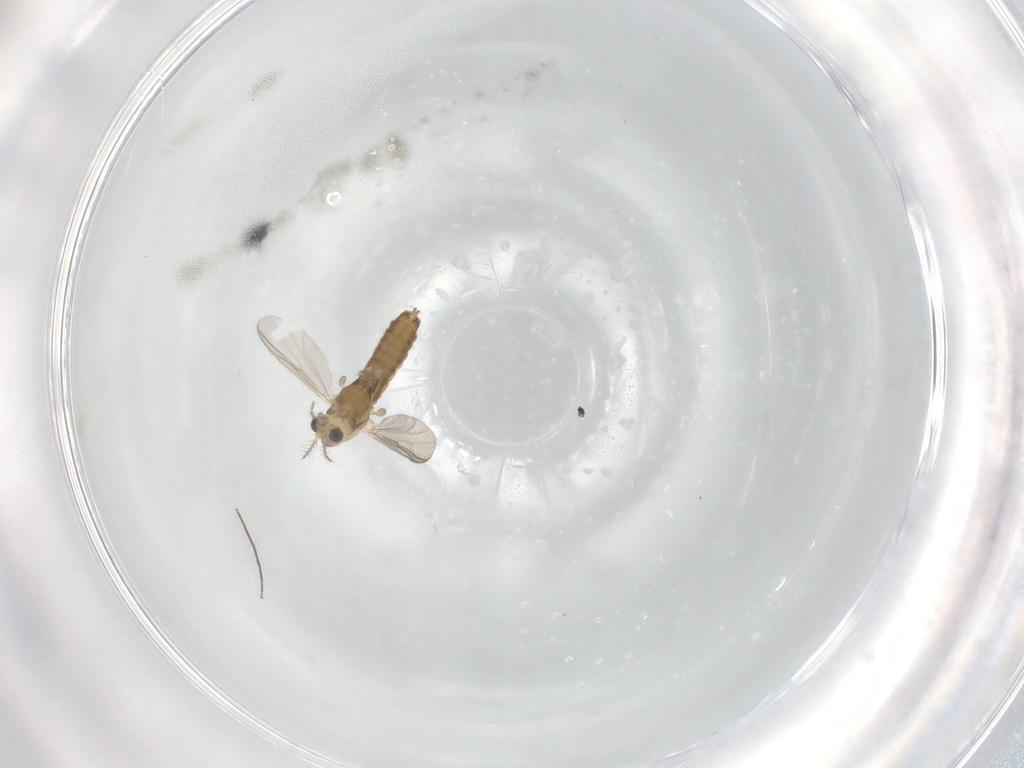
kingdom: Animalia
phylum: Arthropoda
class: Insecta
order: Diptera
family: Chironomidae
